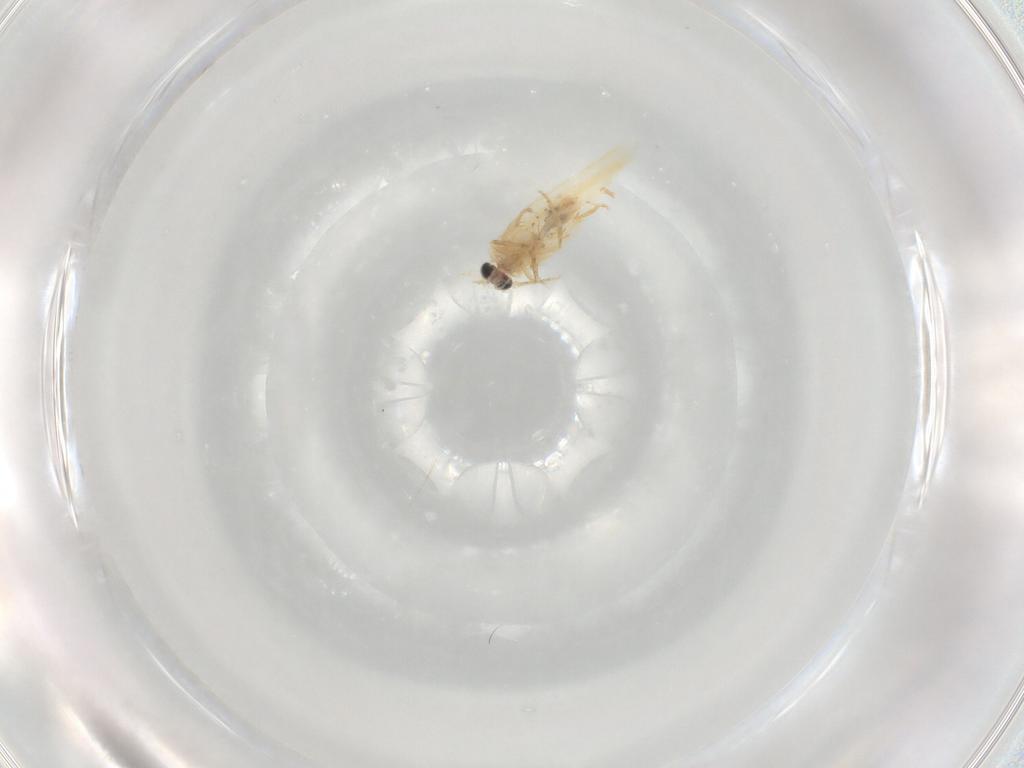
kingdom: Animalia
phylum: Arthropoda
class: Insecta
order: Lepidoptera
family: Nepticulidae
